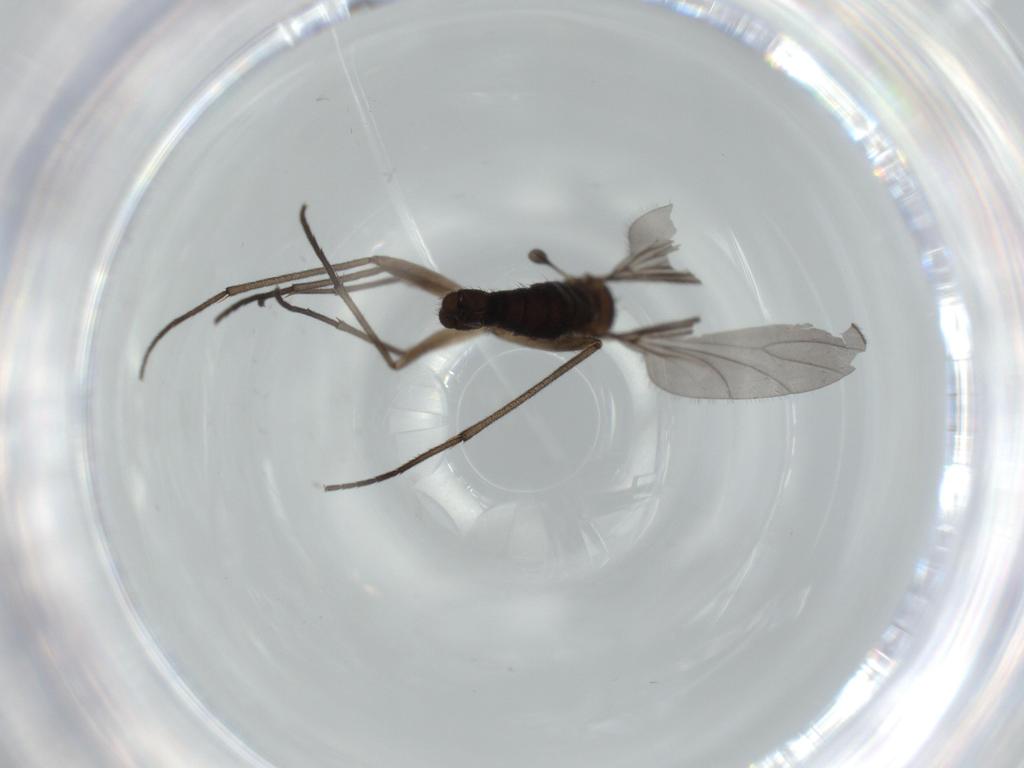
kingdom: Animalia
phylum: Arthropoda
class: Insecta
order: Diptera
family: Sciaridae
